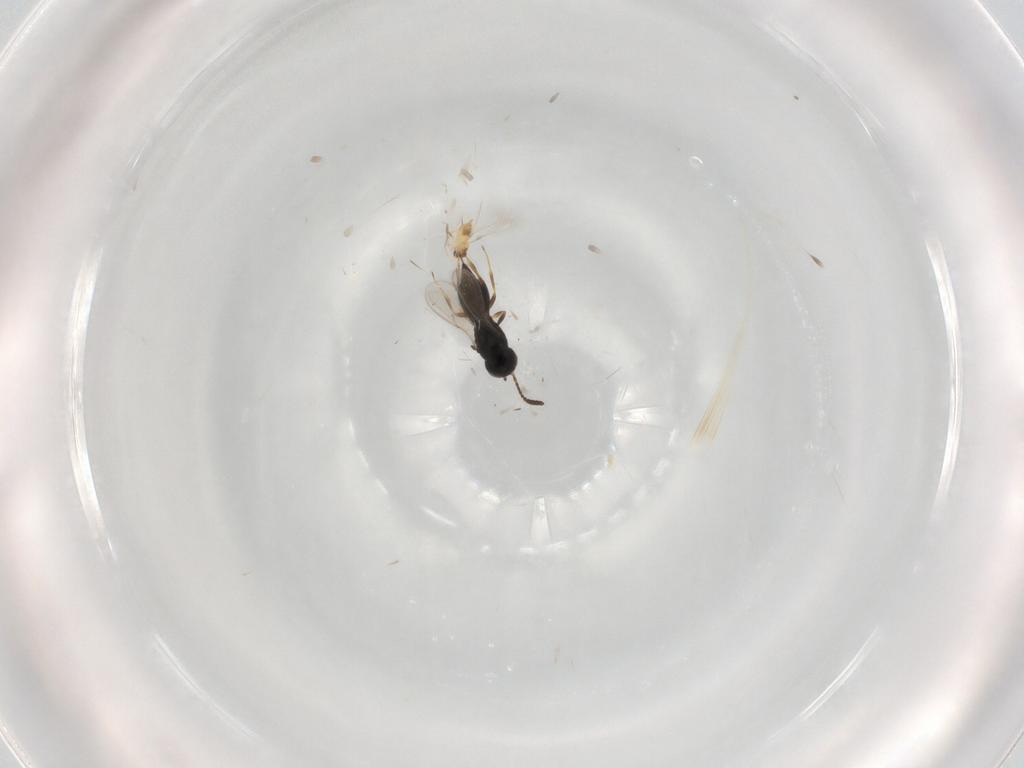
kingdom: Animalia
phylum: Arthropoda
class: Insecta
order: Hymenoptera
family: Scelionidae
